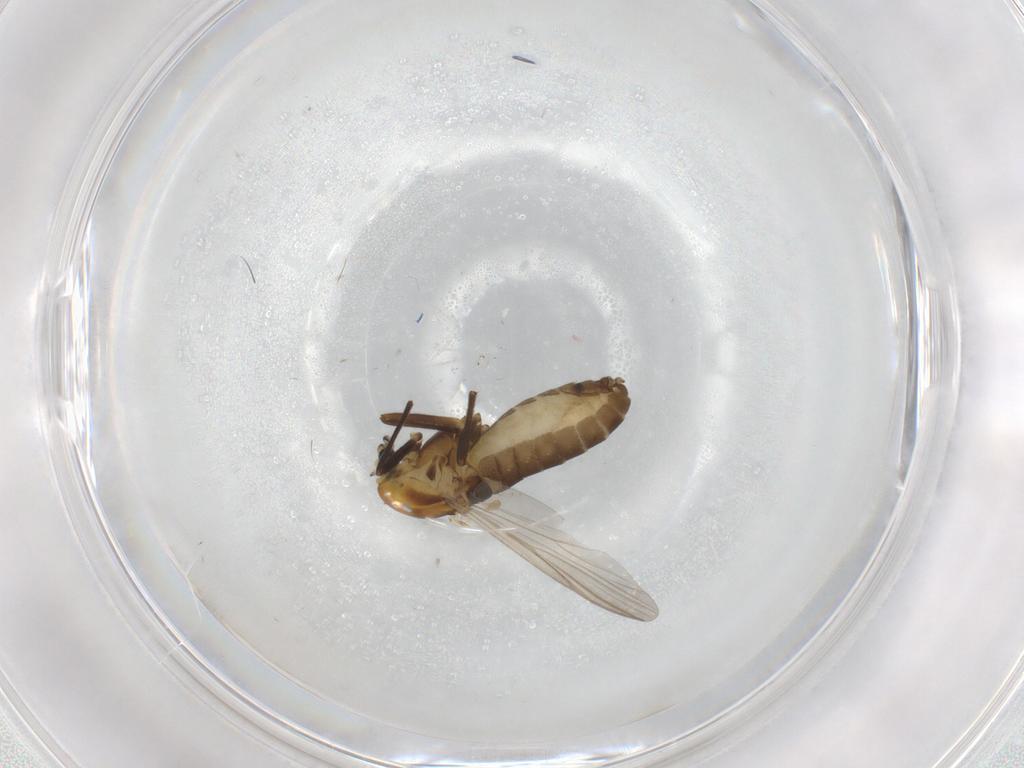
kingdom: Animalia
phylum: Arthropoda
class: Insecta
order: Diptera
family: Chironomidae
